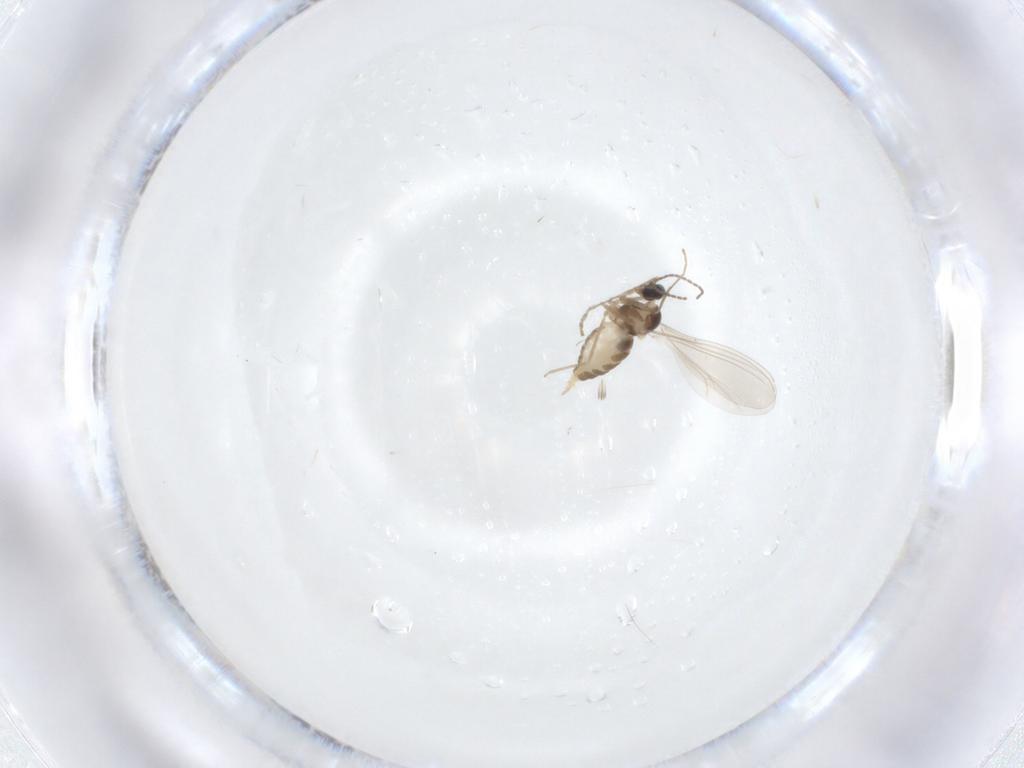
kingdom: Animalia
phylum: Arthropoda
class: Insecta
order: Diptera
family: Cecidomyiidae
